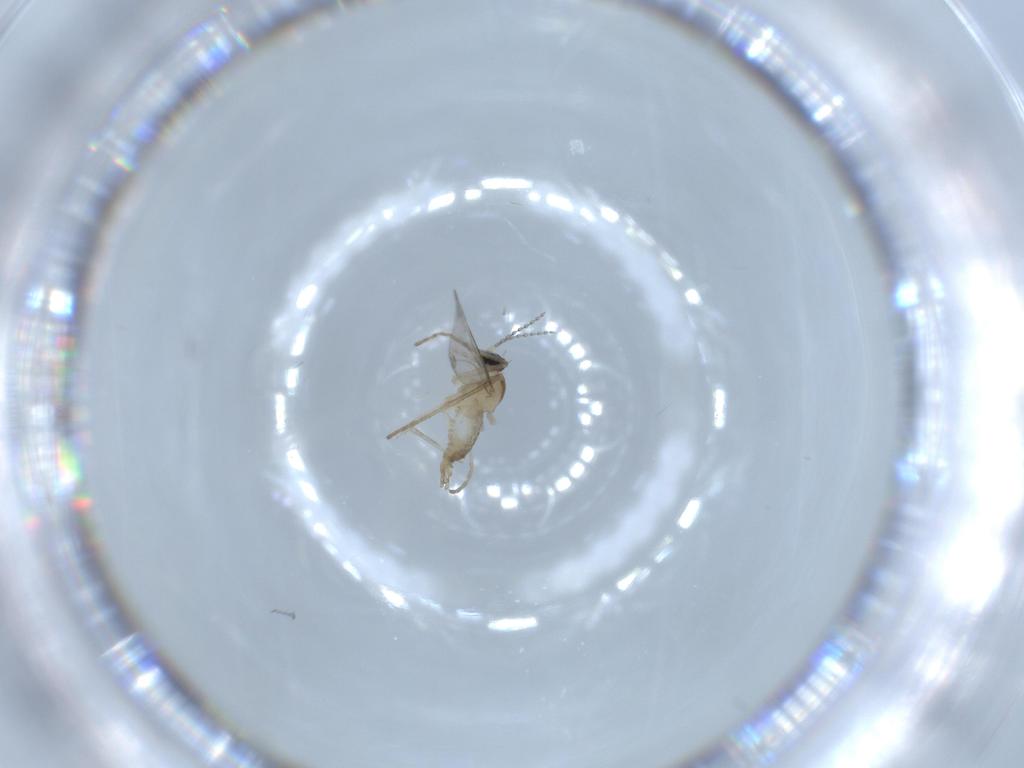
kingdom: Animalia
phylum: Arthropoda
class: Insecta
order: Diptera
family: Cecidomyiidae
